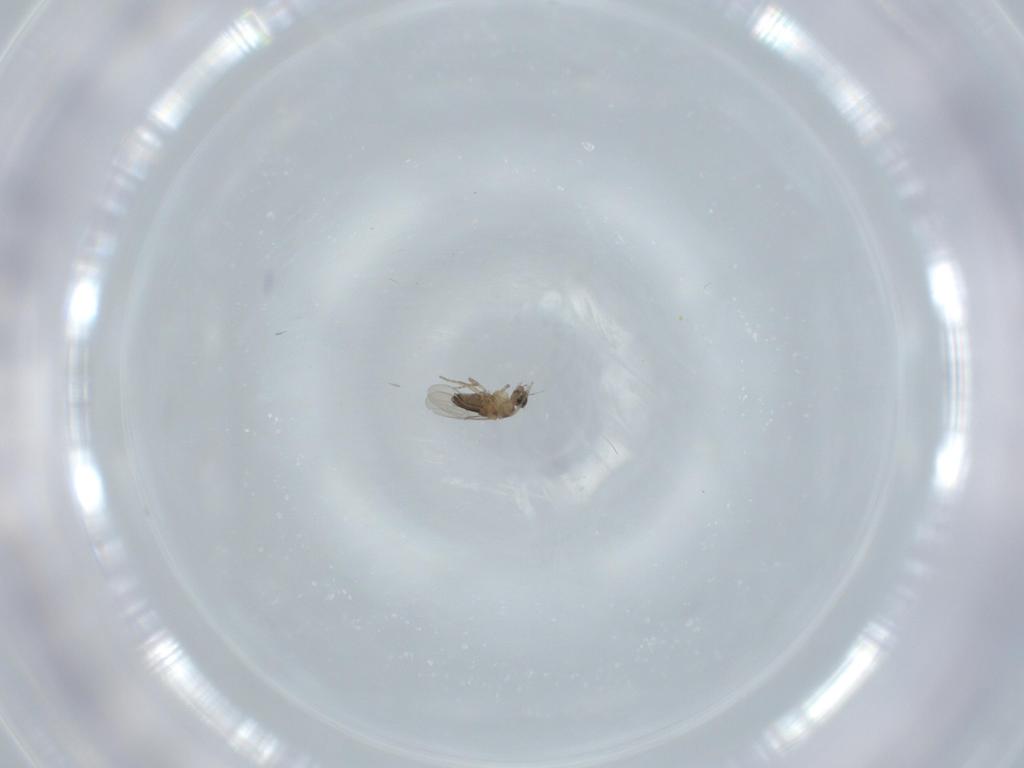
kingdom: Animalia
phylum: Arthropoda
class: Insecta
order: Diptera
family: Phoridae
